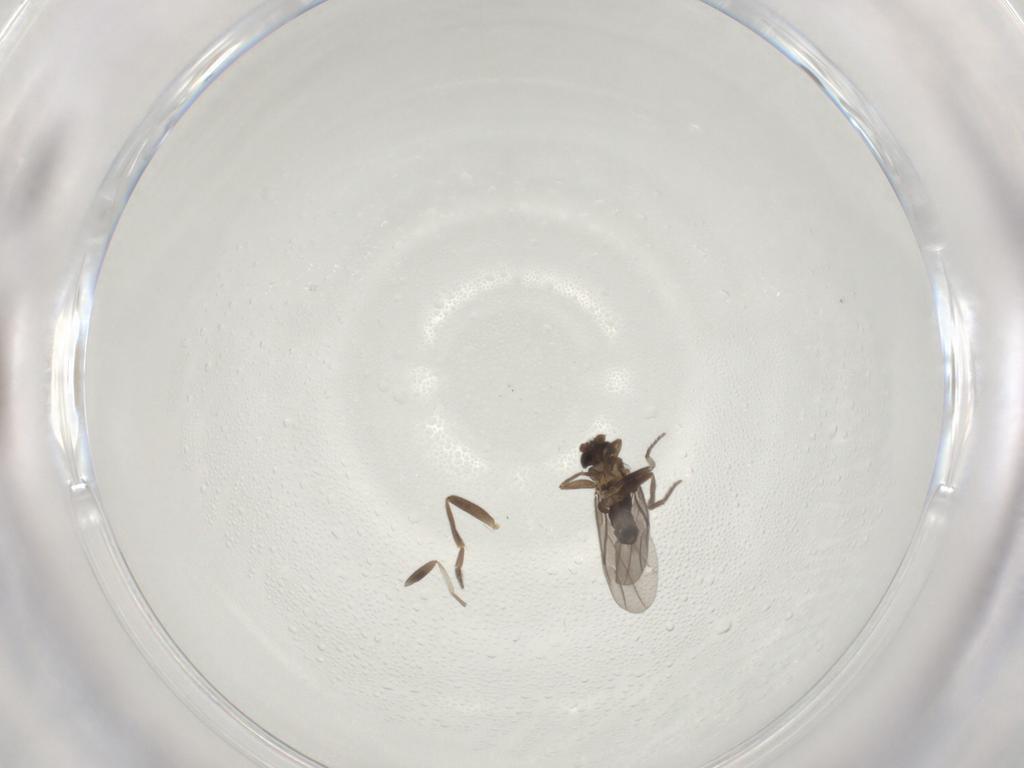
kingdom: Animalia
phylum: Arthropoda
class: Insecta
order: Diptera
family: Phoridae
